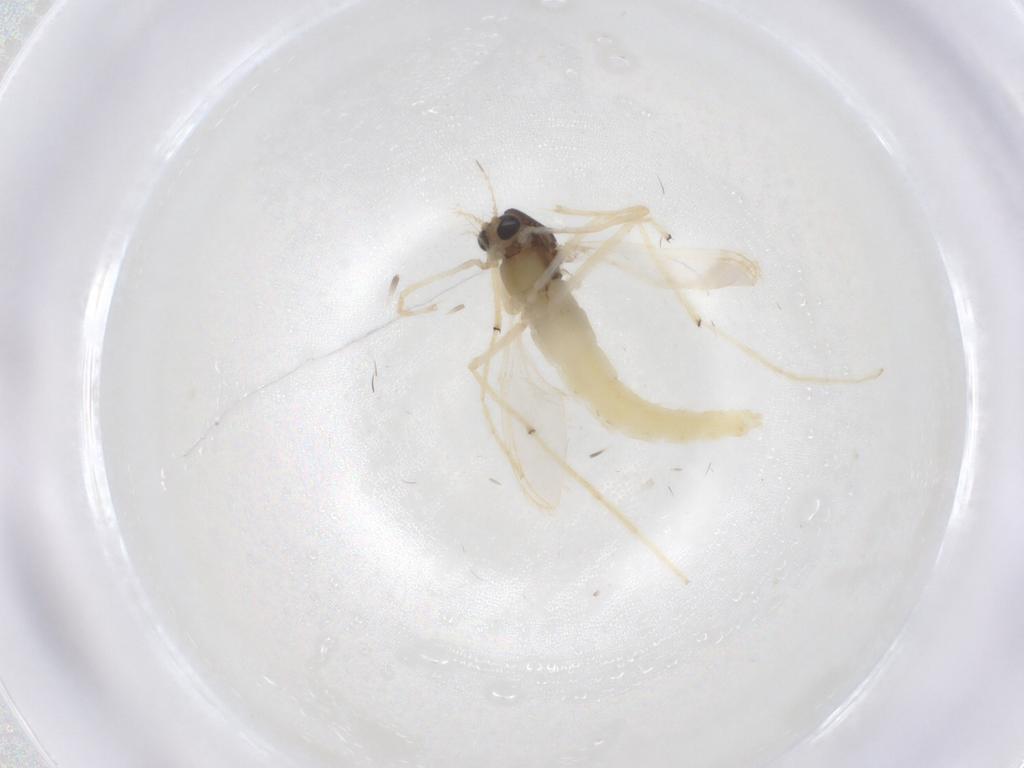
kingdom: Animalia
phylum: Arthropoda
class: Insecta
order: Diptera
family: Chironomidae
